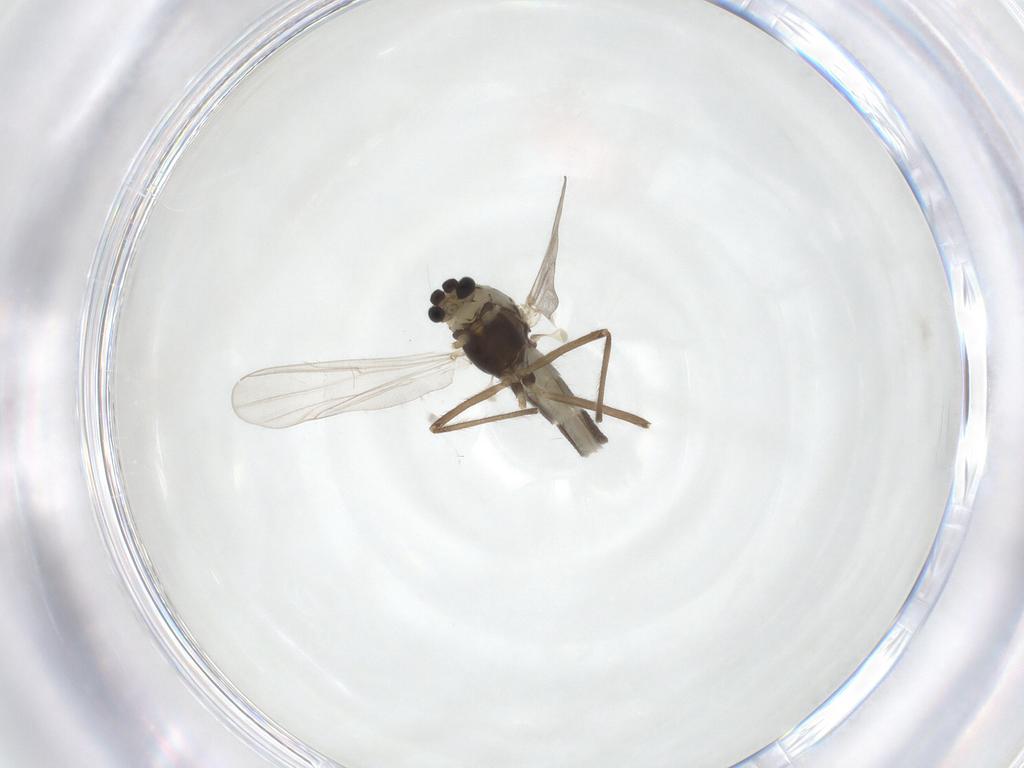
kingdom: Animalia
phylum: Arthropoda
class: Insecta
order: Diptera
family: Chironomidae
